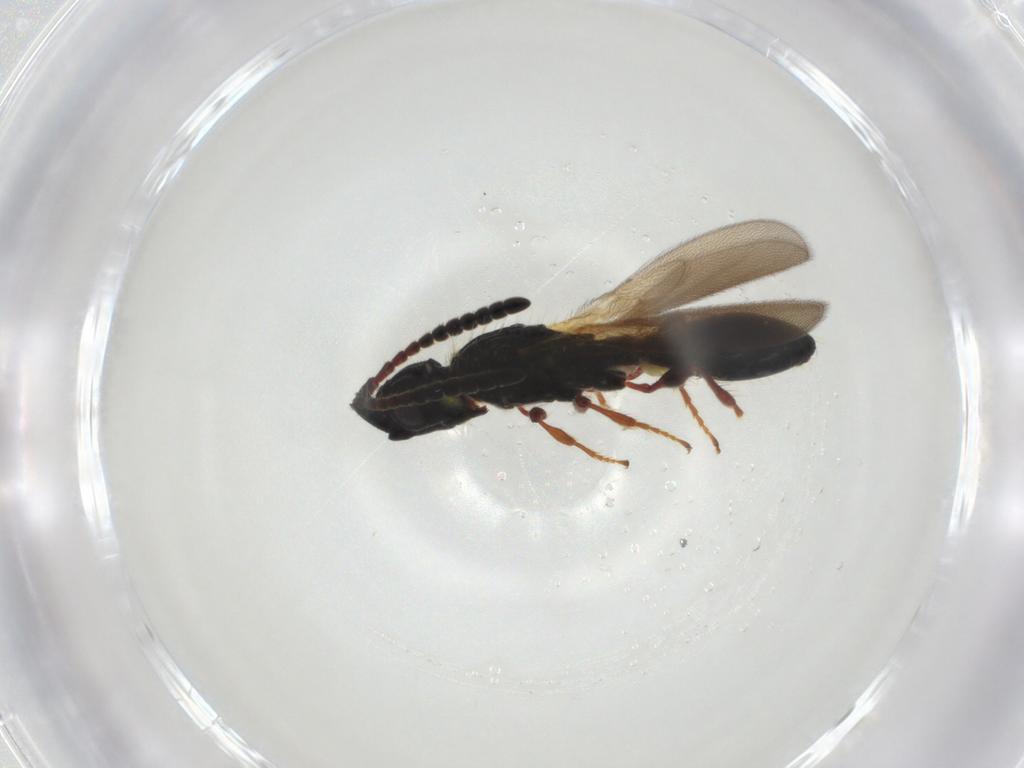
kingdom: Animalia
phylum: Arthropoda
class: Insecta
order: Hymenoptera
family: Diapriidae
